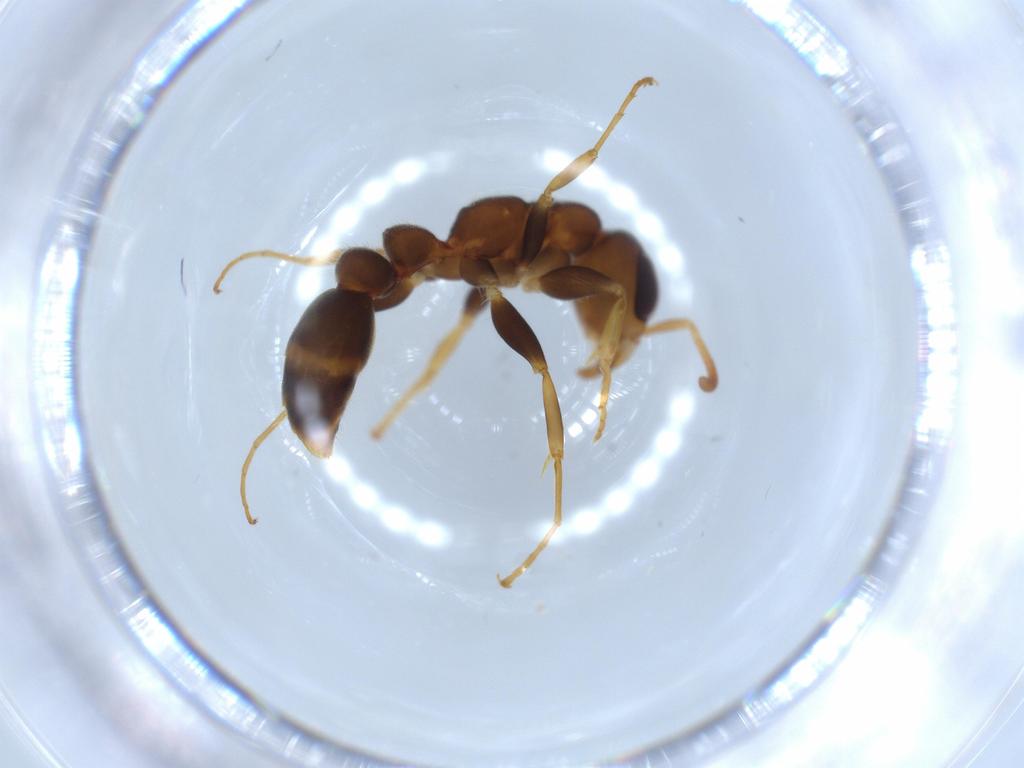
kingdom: Animalia
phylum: Arthropoda
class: Insecta
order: Hymenoptera
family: Formicidae
